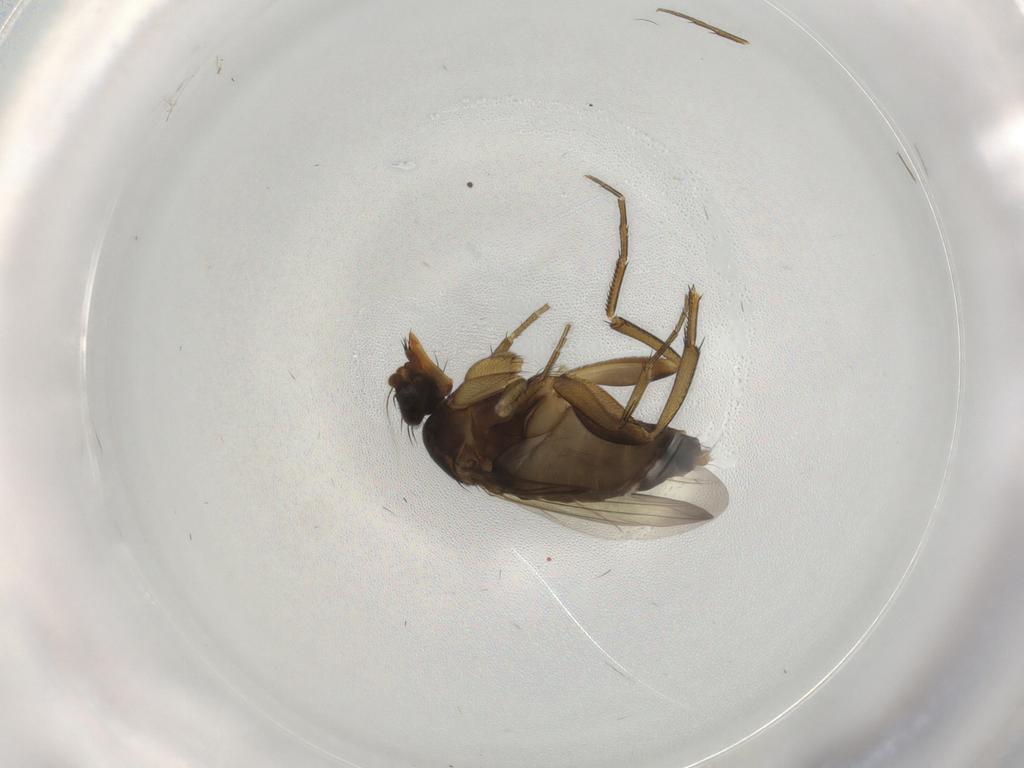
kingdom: Animalia
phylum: Arthropoda
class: Insecta
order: Diptera
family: Phoridae
